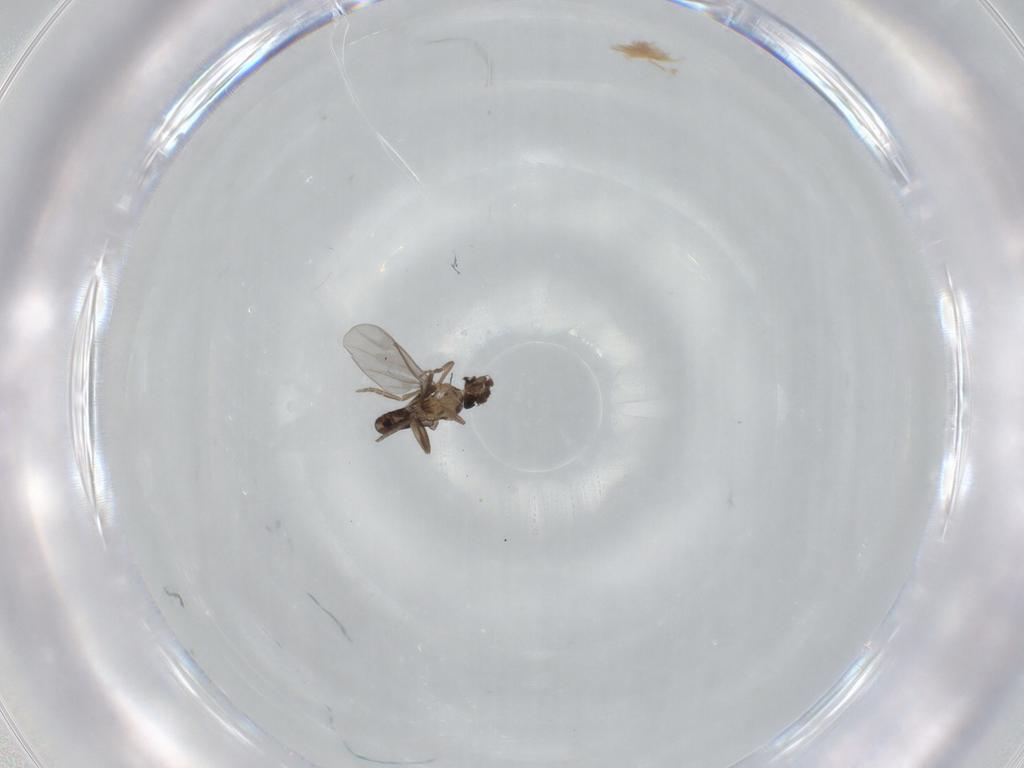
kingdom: Animalia
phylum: Arthropoda
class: Insecta
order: Diptera
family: Phoridae
